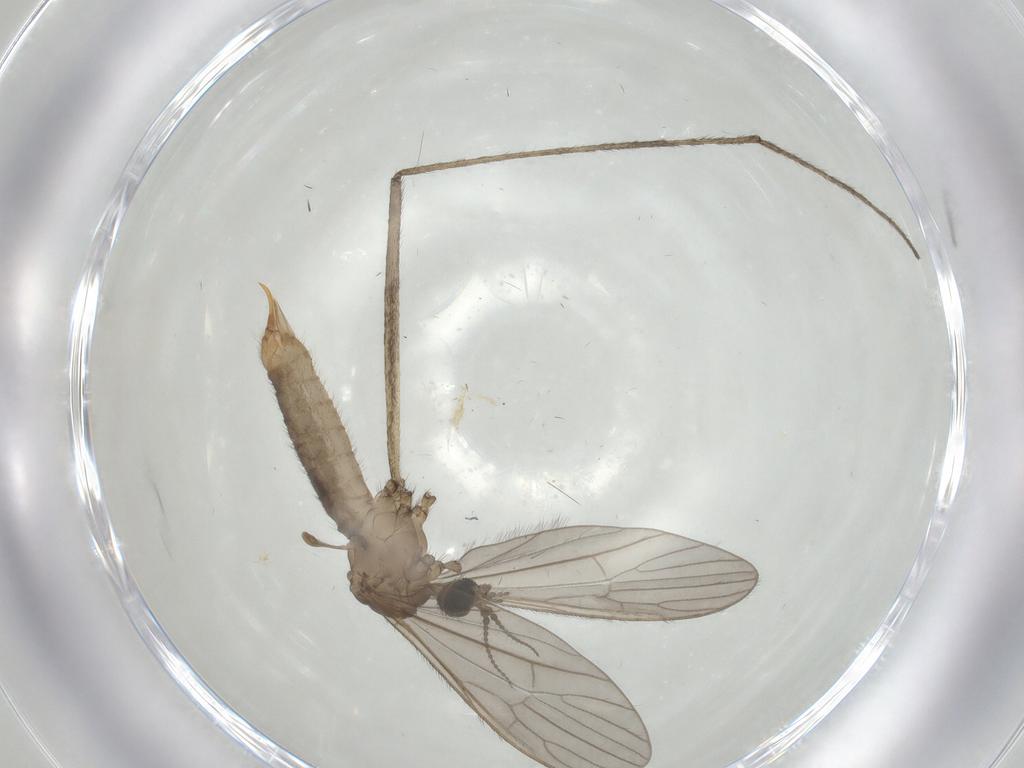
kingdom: Animalia
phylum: Arthropoda
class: Insecta
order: Diptera
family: Limoniidae
